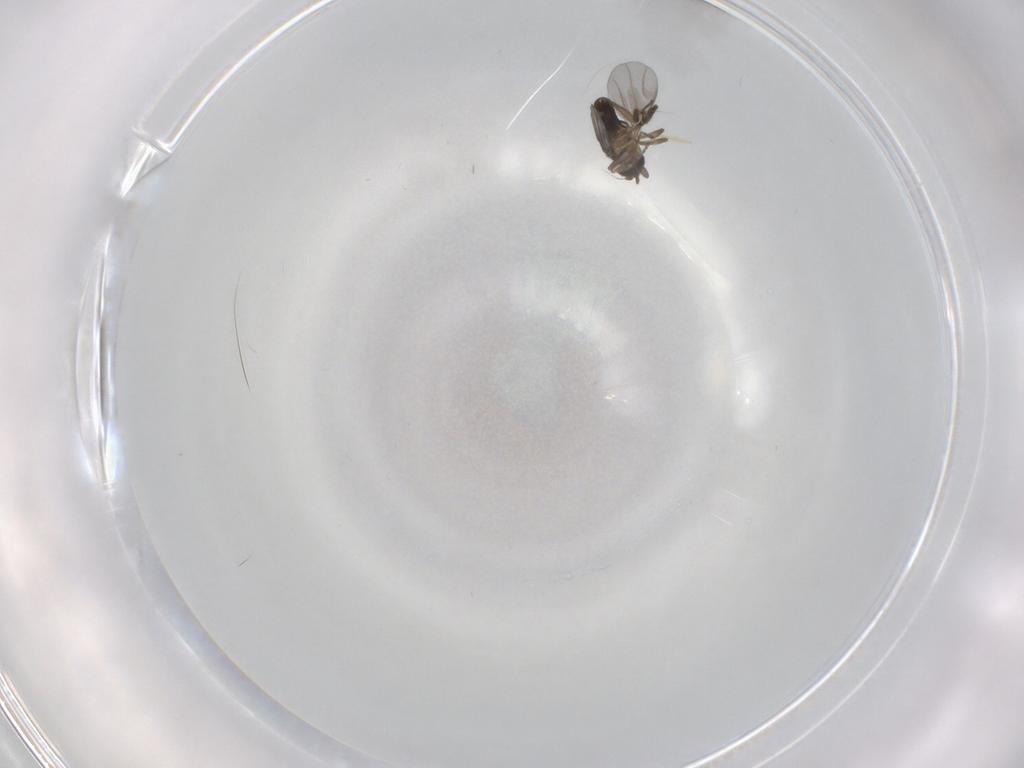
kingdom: Animalia
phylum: Arthropoda
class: Insecta
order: Diptera
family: Chironomidae
